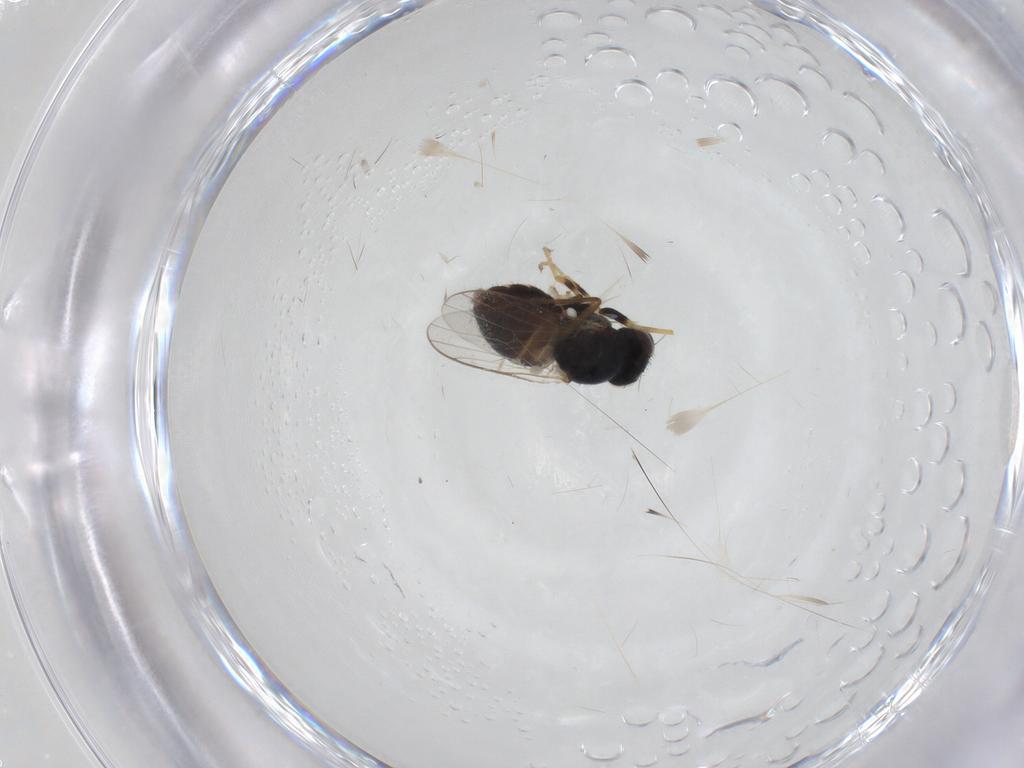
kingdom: Animalia
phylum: Arthropoda
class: Insecta
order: Diptera
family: Chloropidae
